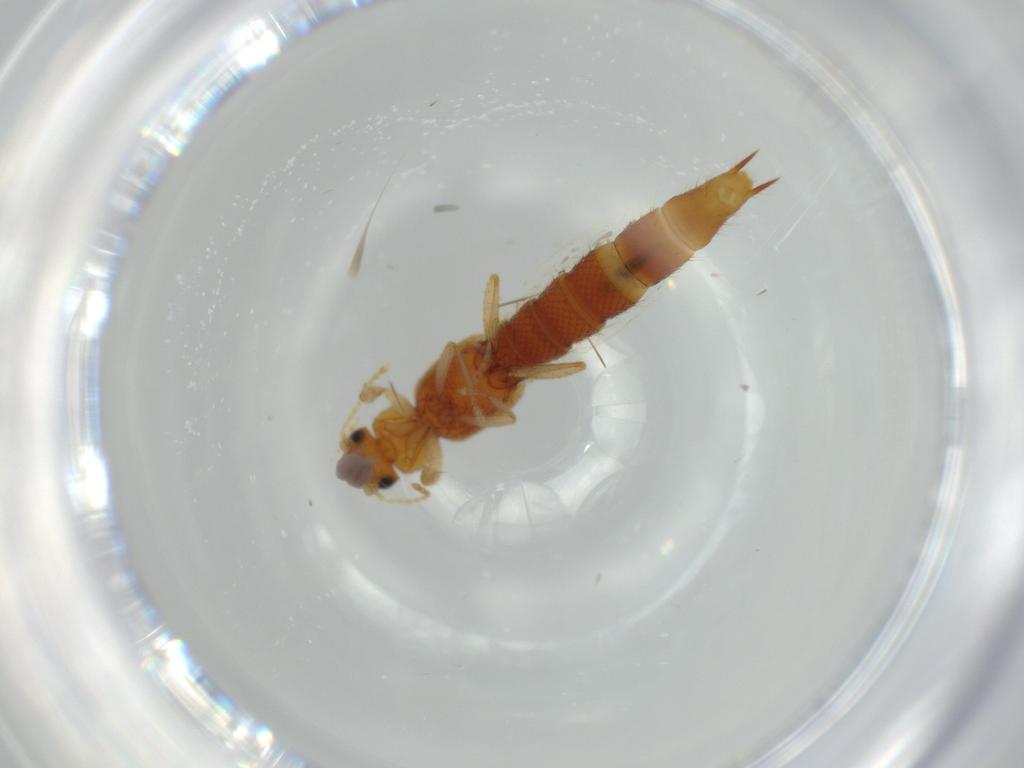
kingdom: Animalia
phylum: Arthropoda
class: Insecta
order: Coleoptera
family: Staphylinidae
